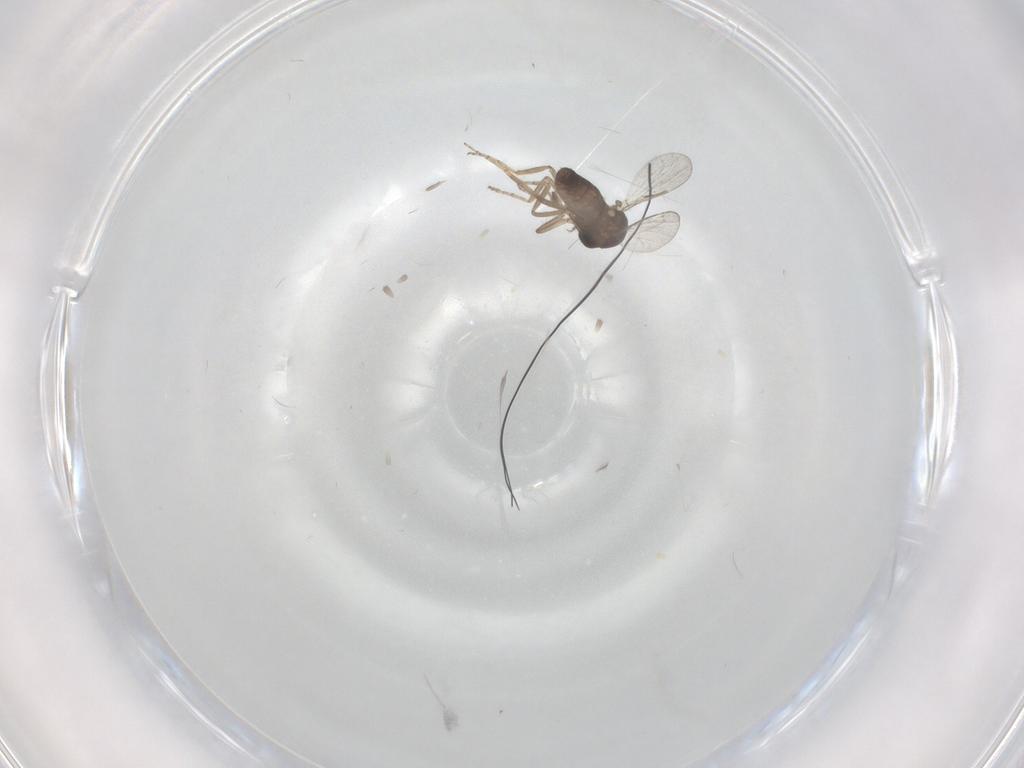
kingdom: Animalia
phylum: Arthropoda
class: Insecta
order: Diptera
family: Ceratopogonidae
